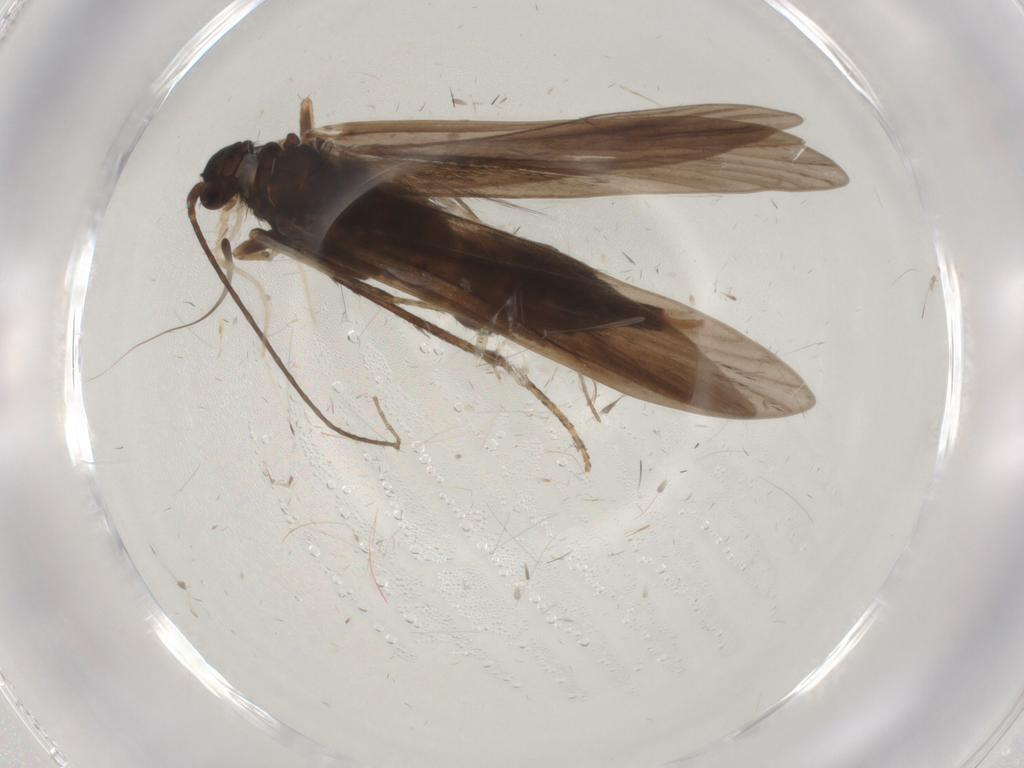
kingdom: Animalia
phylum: Arthropoda
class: Insecta
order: Trichoptera
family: Xiphocentronidae
